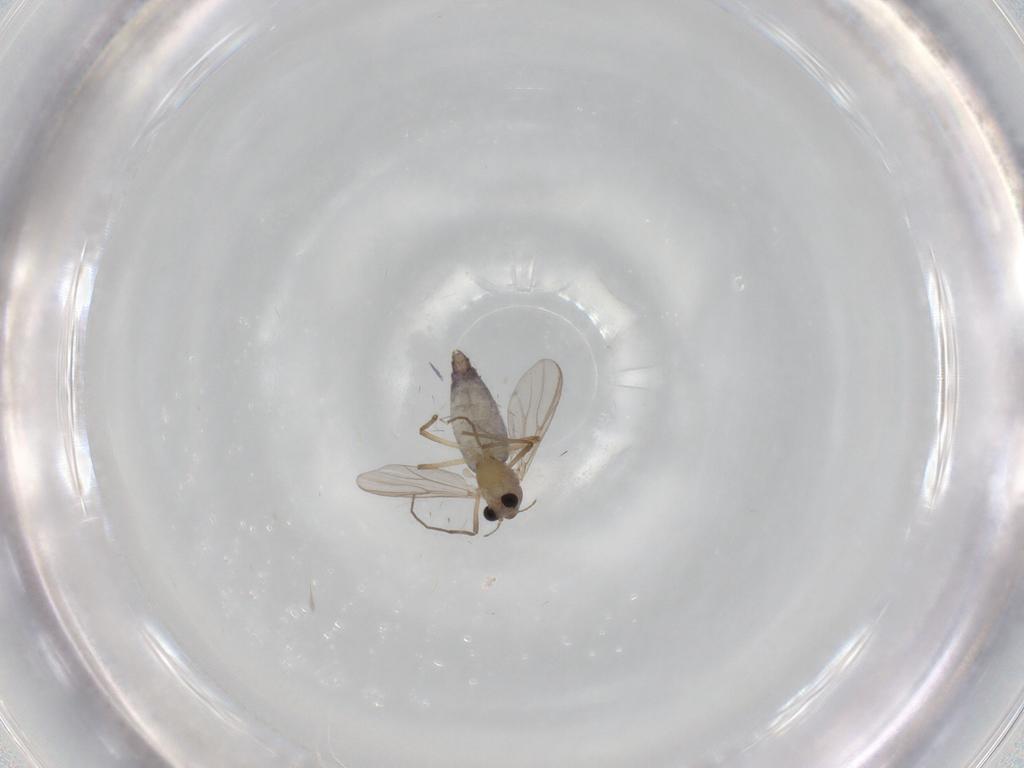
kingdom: Animalia
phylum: Arthropoda
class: Insecta
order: Diptera
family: Chironomidae
